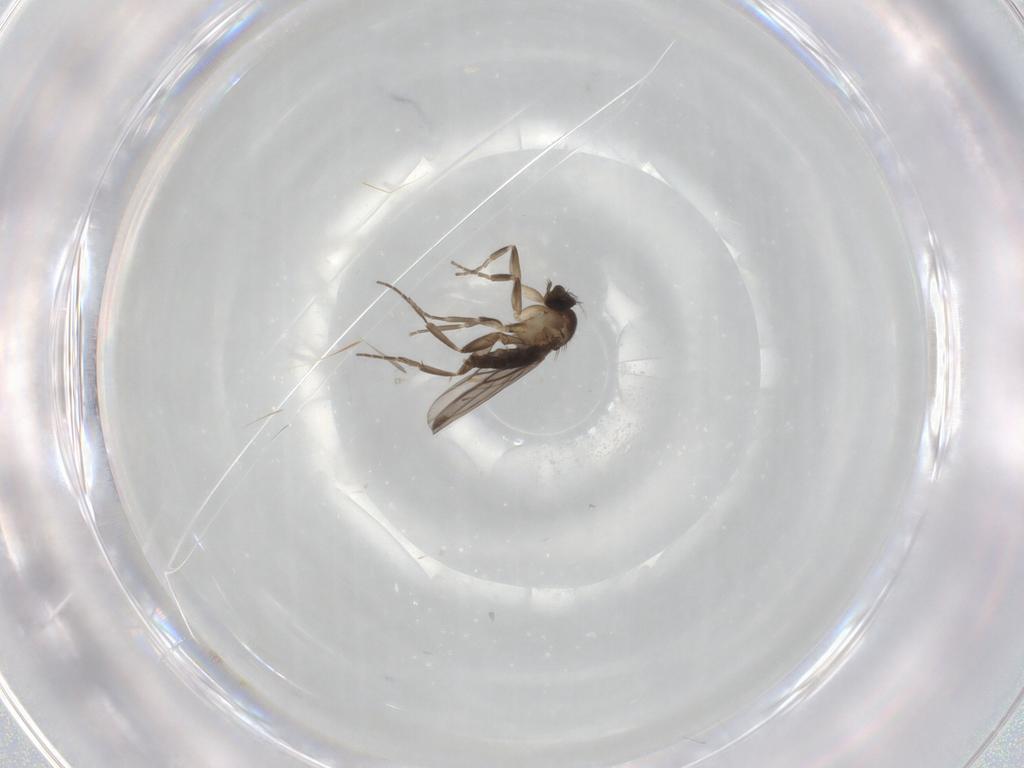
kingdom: Animalia
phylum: Arthropoda
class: Insecta
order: Diptera
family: Phoridae
